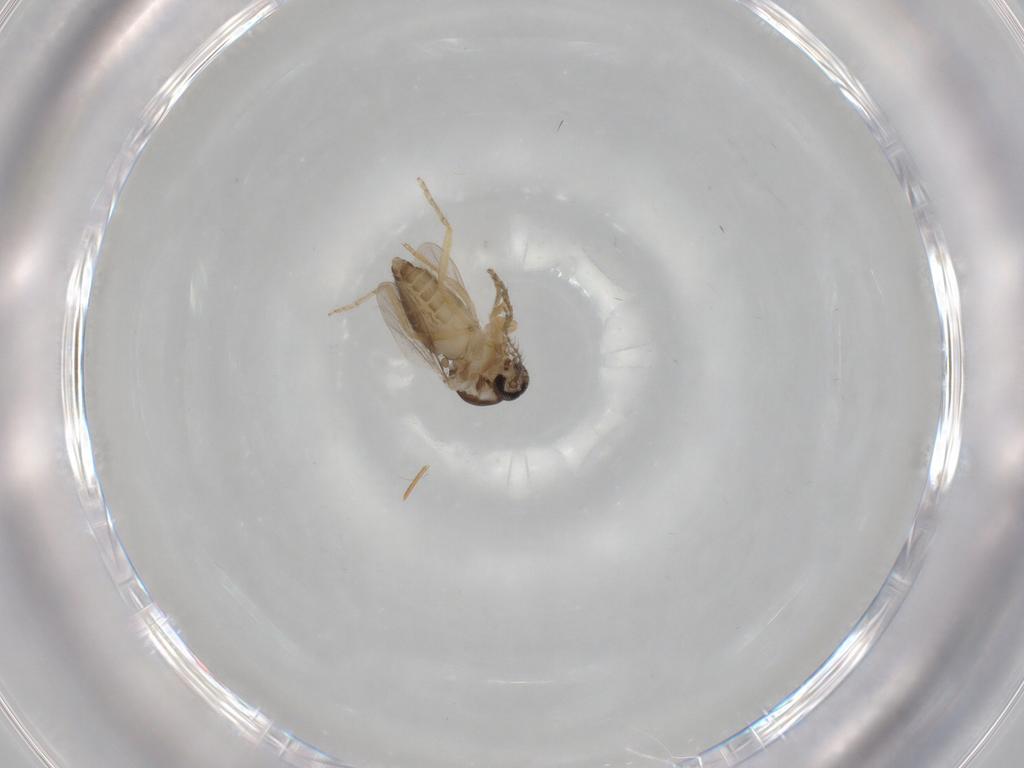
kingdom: Animalia
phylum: Arthropoda
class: Insecta
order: Diptera
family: Ceratopogonidae
